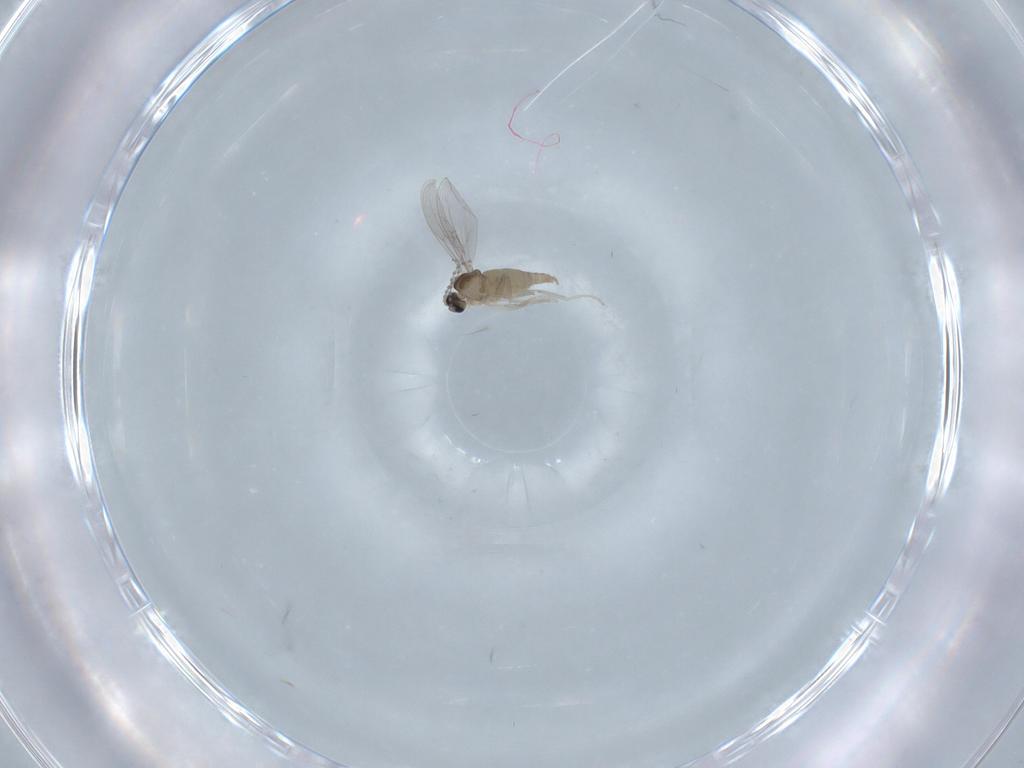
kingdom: Animalia
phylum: Arthropoda
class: Insecta
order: Diptera
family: Cecidomyiidae
